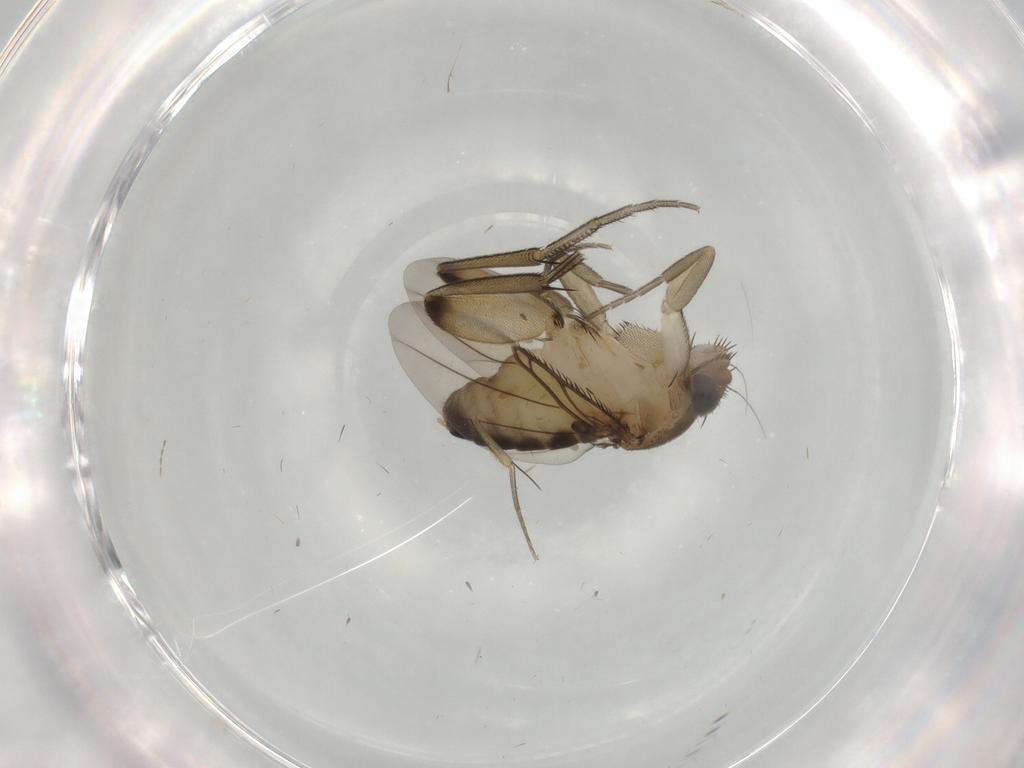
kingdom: Animalia
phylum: Arthropoda
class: Insecta
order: Diptera
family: Phoridae
